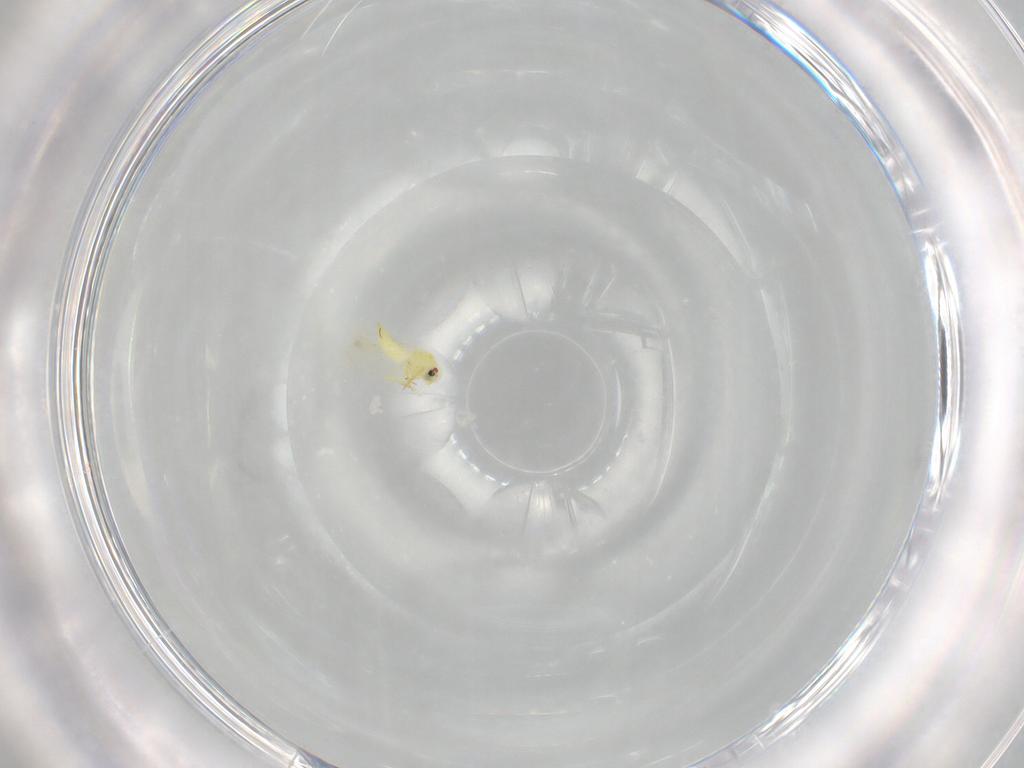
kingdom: Animalia
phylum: Arthropoda
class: Insecta
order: Hemiptera
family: Aleyrodidae
